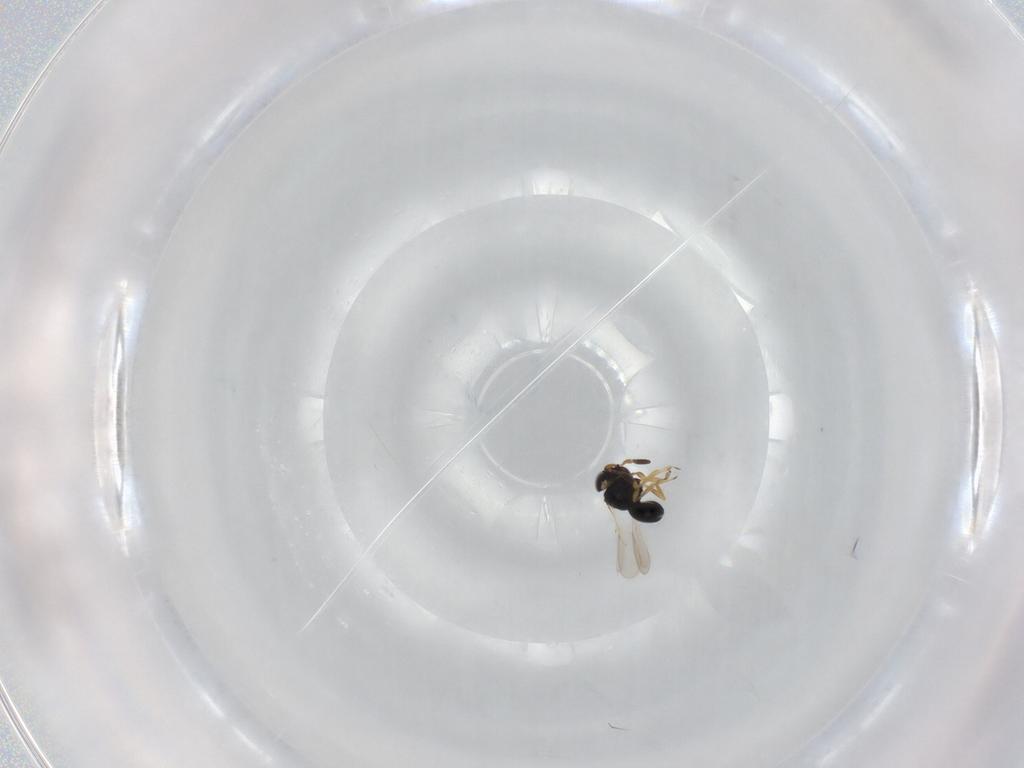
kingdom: Animalia
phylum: Arthropoda
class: Insecta
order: Hymenoptera
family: Scelionidae
